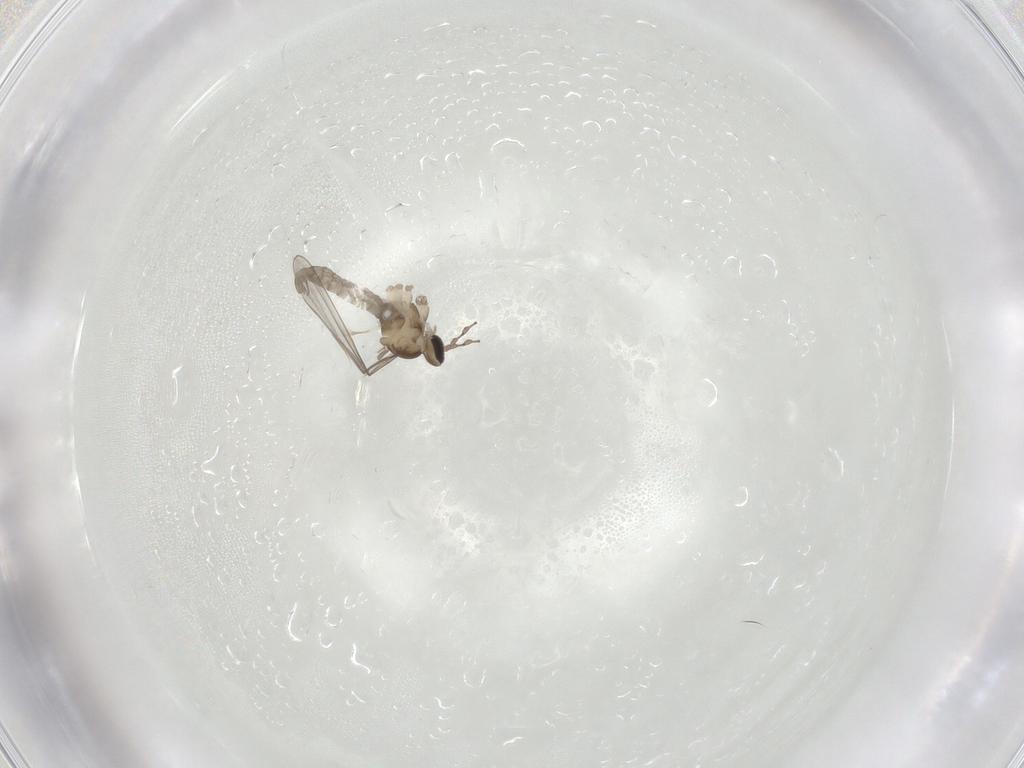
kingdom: Animalia
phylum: Arthropoda
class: Insecta
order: Diptera
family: Cecidomyiidae
